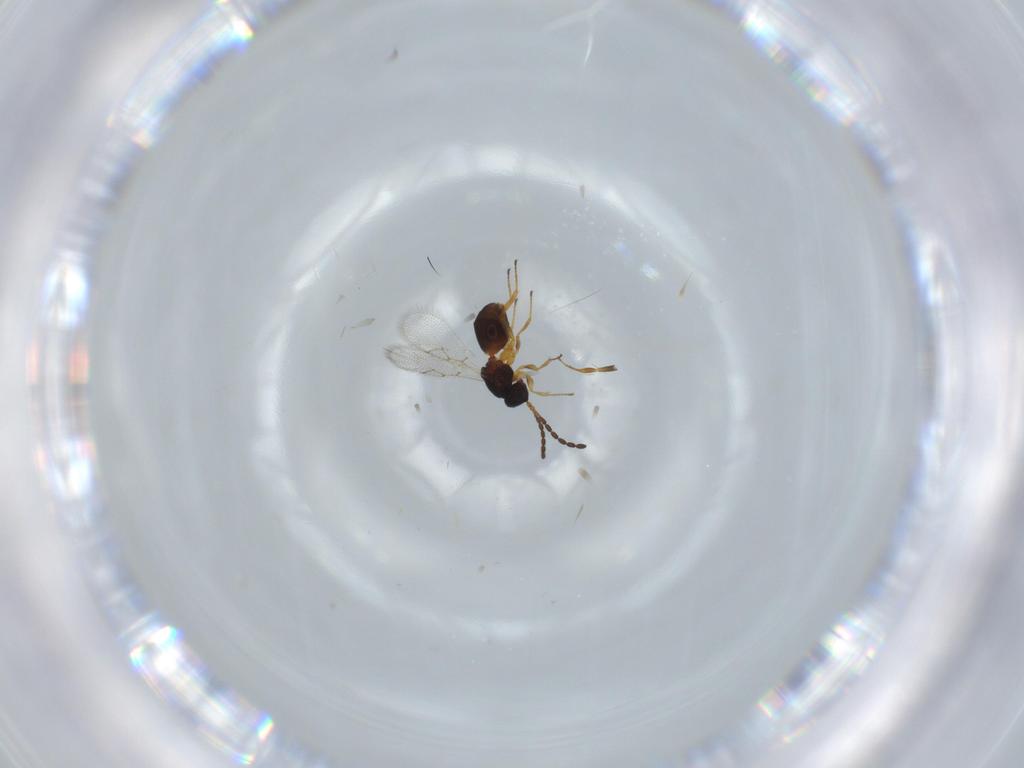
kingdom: Animalia
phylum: Arthropoda
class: Insecta
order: Hymenoptera
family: Figitidae
